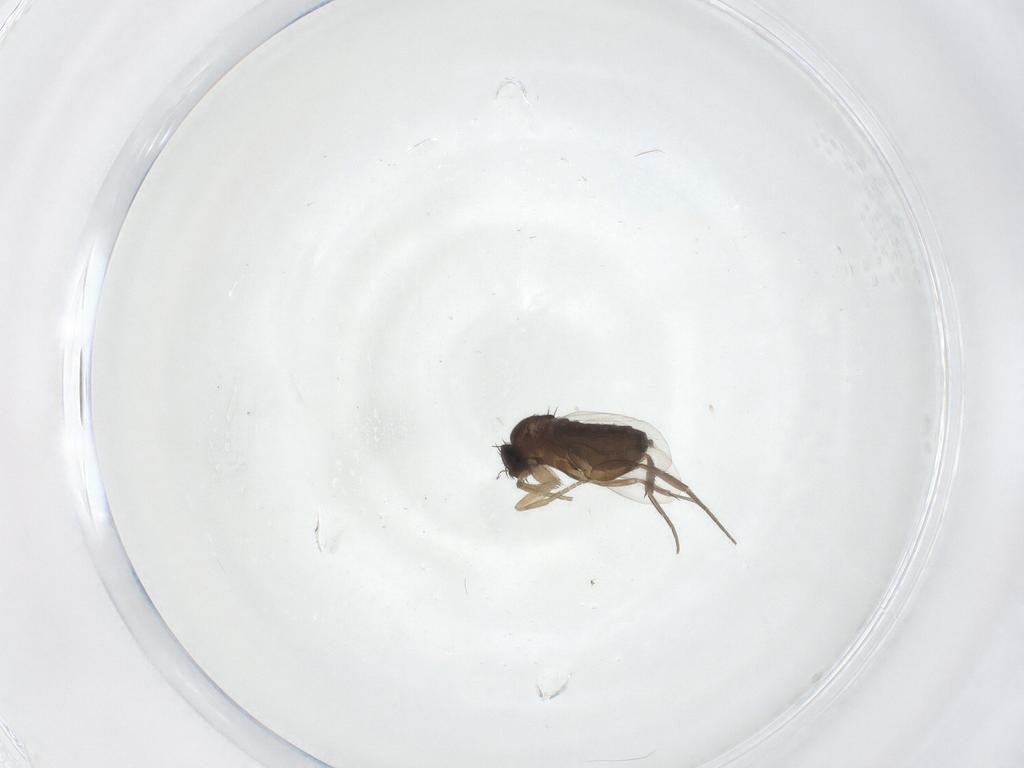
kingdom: Animalia
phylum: Arthropoda
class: Insecta
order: Diptera
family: Phoridae
